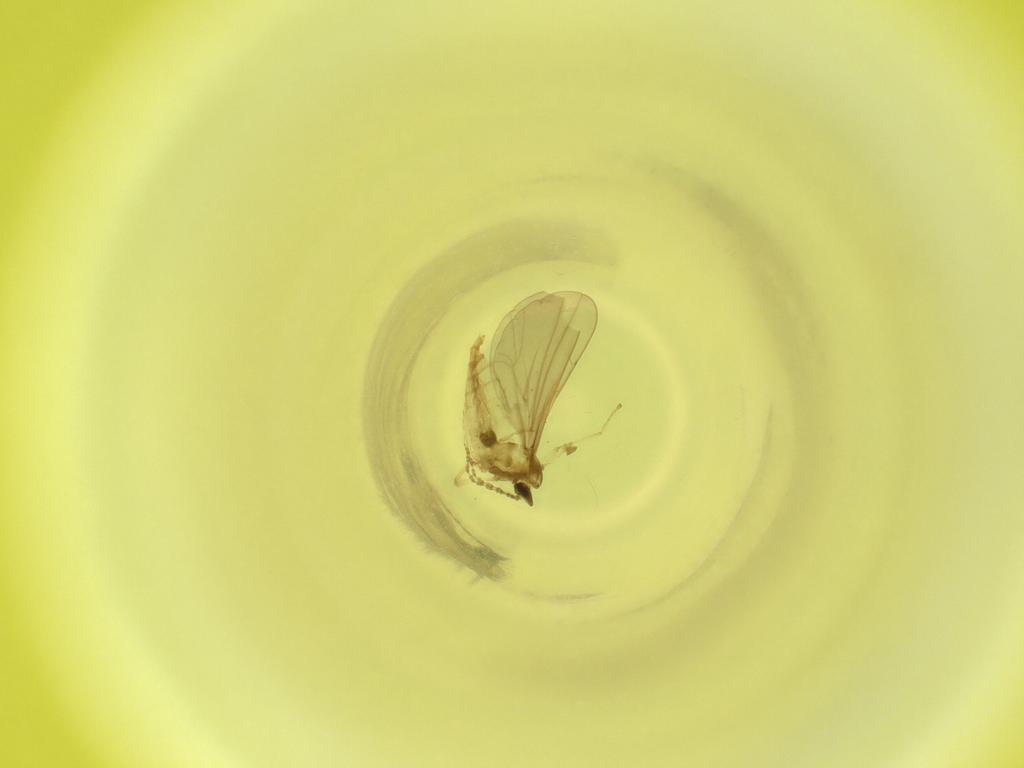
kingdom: Animalia
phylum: Arthropoda
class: Insecta
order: Diptera
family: Cecidomyiidae
